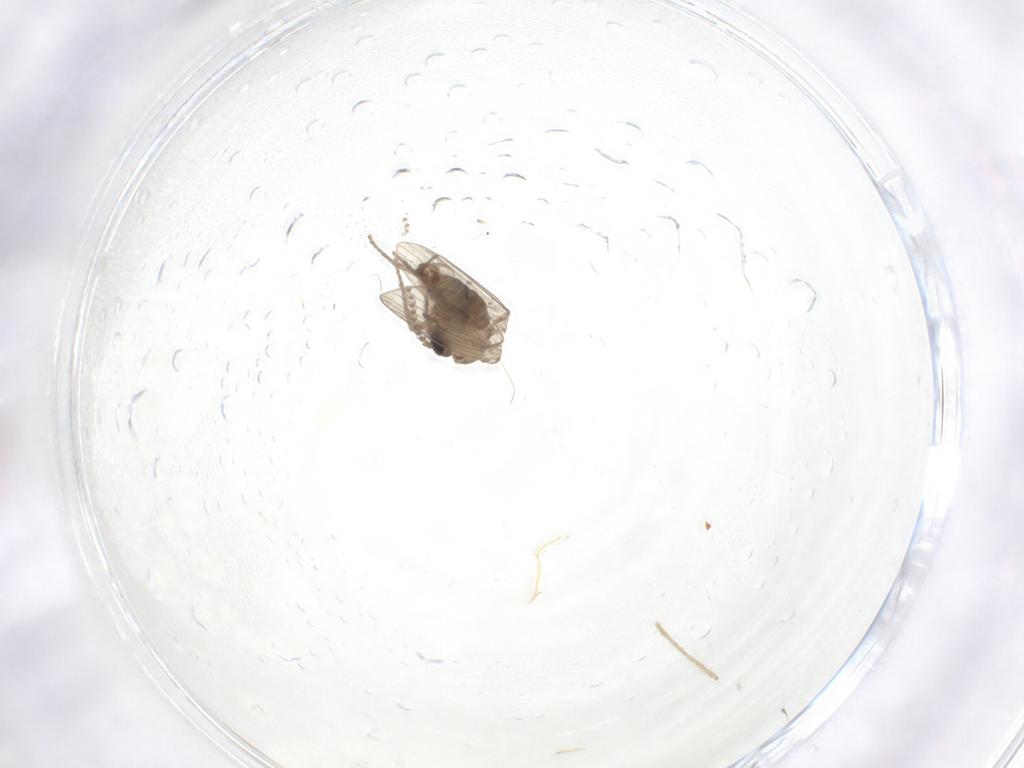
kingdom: Animalia
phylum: Arthropoda
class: Insecta
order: Diptera
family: Psychodidae
